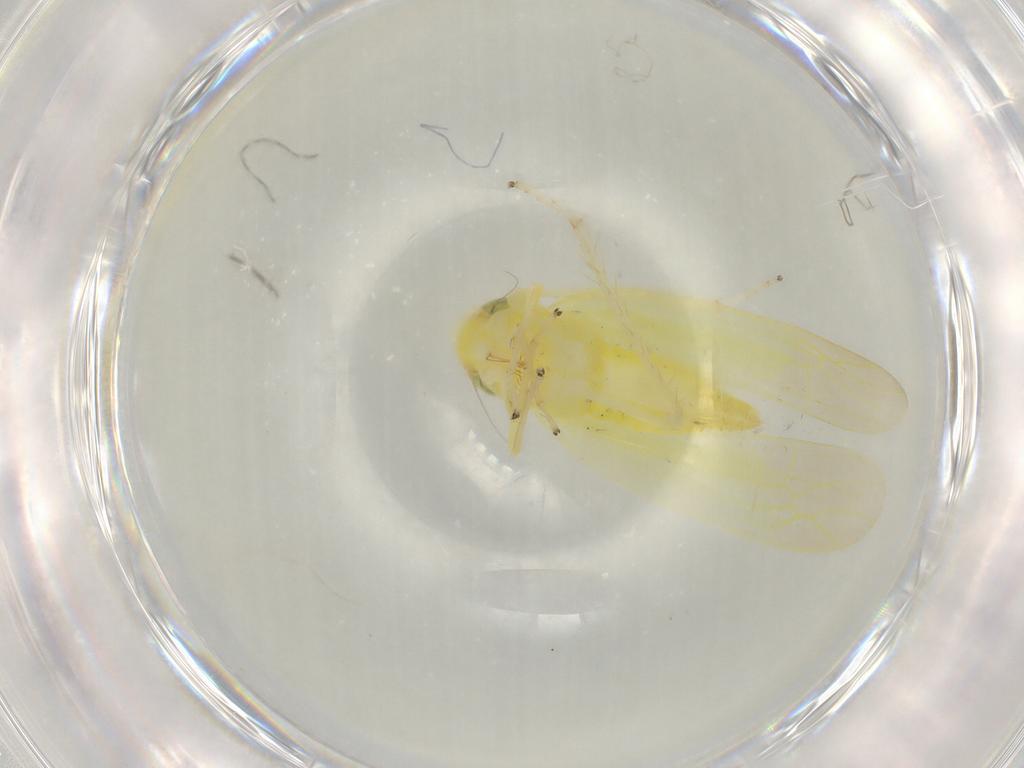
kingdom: Animalia
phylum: Arthropoda
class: Insecta
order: Hemiptera
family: Cicadellidae
